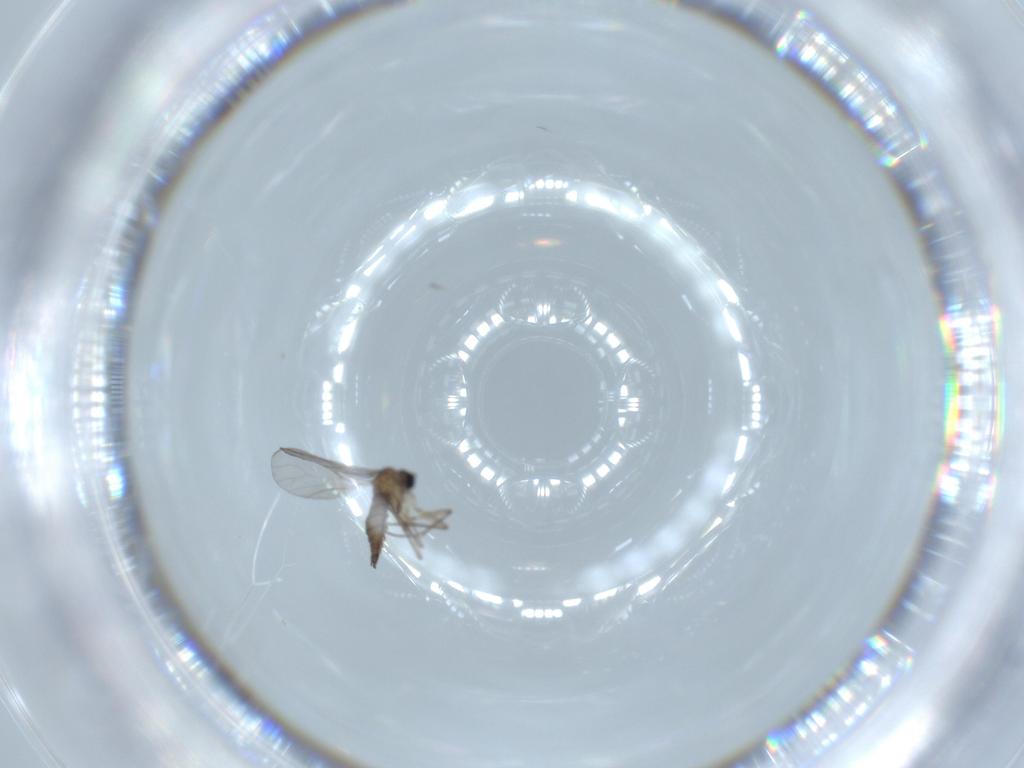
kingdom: Animalia
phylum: Arthropoda
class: Insecta
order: Diptera
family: Sciaridae
